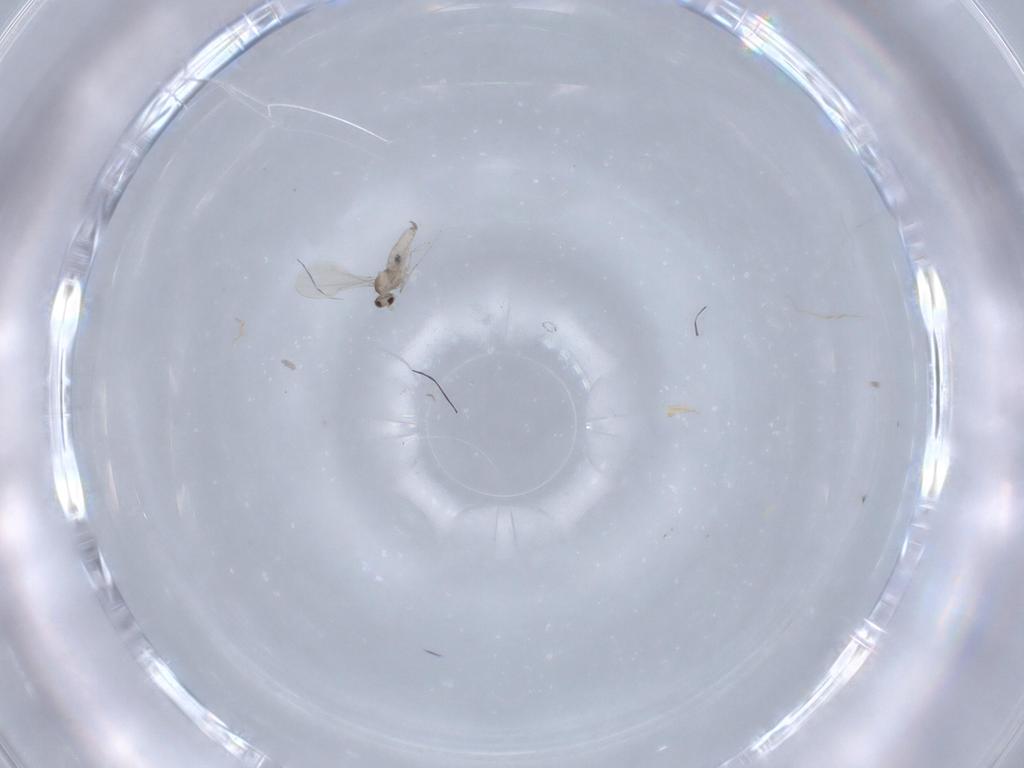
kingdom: Animalia
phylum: Arthropoda
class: Insecta
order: Diptera
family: Cecidomyiidae
